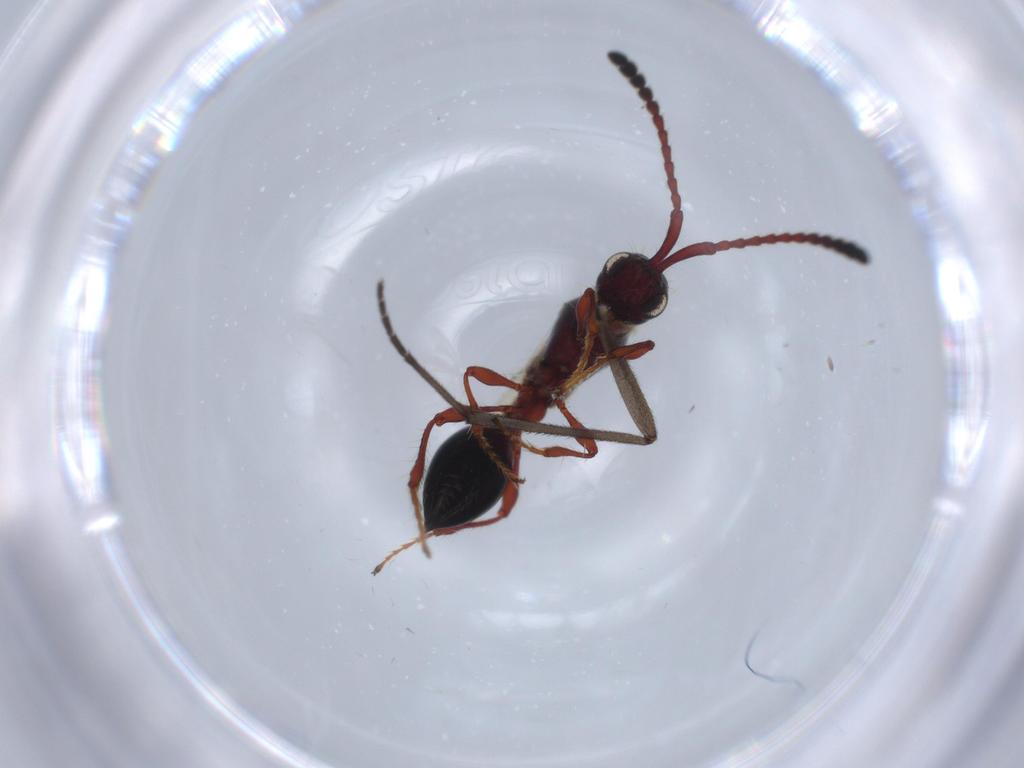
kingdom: Animalia
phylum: Arthropoda
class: Insecta
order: Hymenoptera
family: Diapriidae
